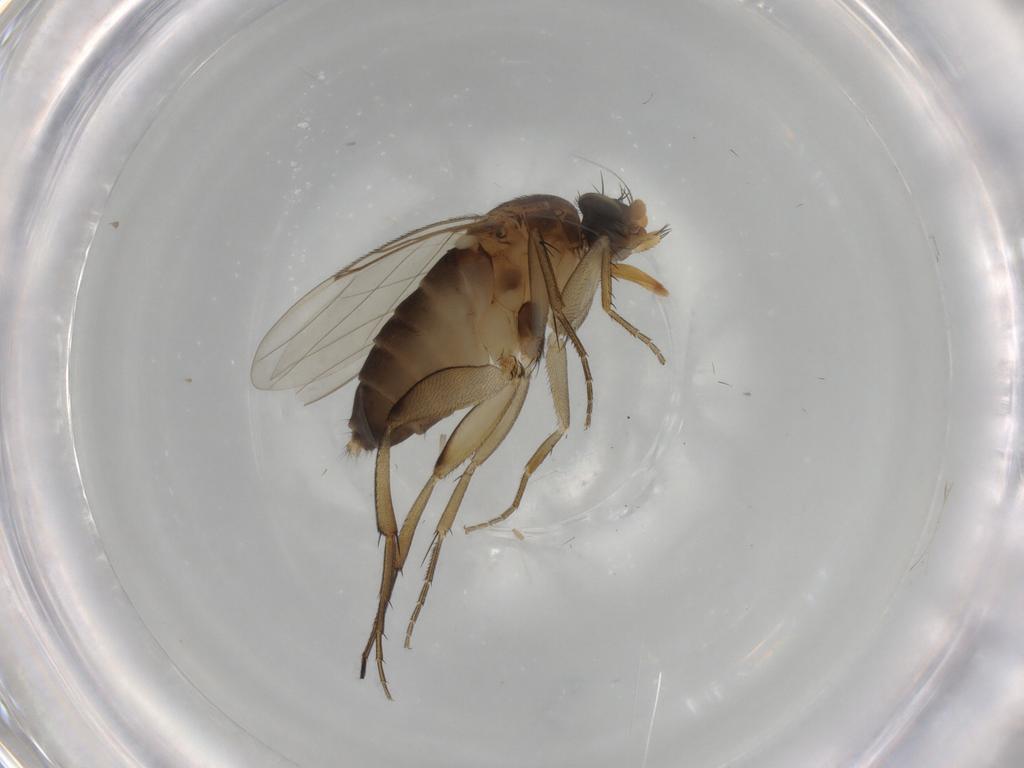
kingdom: Animalia
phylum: Arthropoda
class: Insecta
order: Diptera
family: Phoridae
